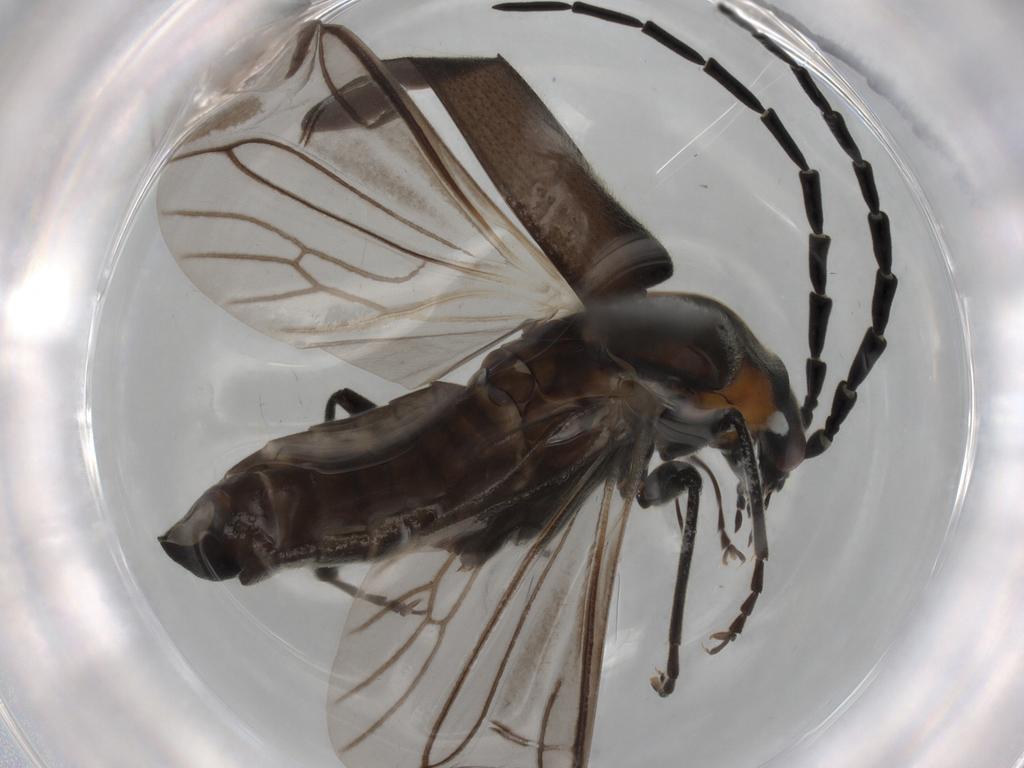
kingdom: Animalia
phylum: Arthropoda
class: Insecta
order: Coleoptera
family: Cantharidae
